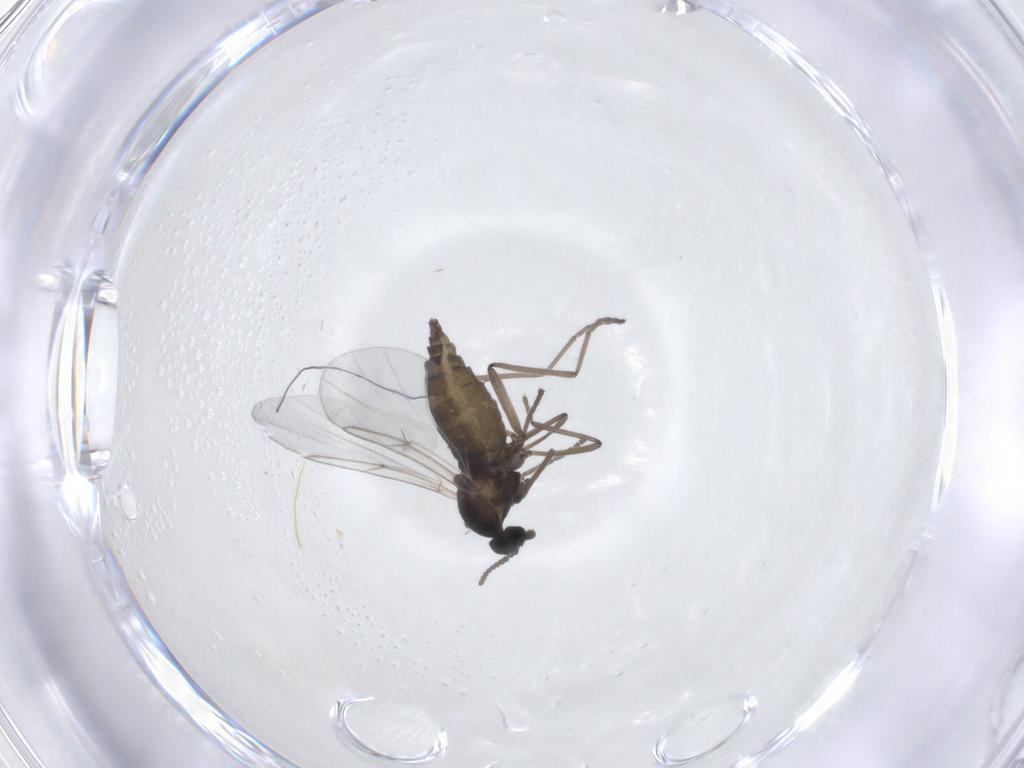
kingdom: Animalia
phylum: Arthropoda
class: Insecta
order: Diptera
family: Cecidomyiidae
